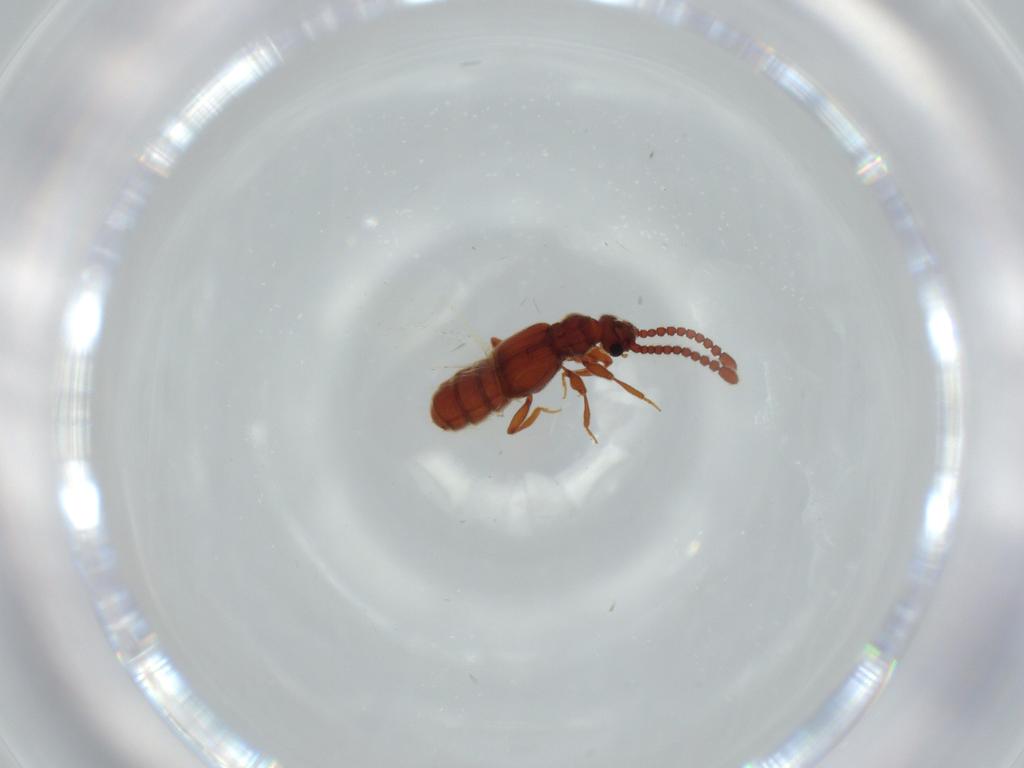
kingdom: Animalia
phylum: Arthropoda
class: Insecta
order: Coleoptera
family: Staphylinidae
